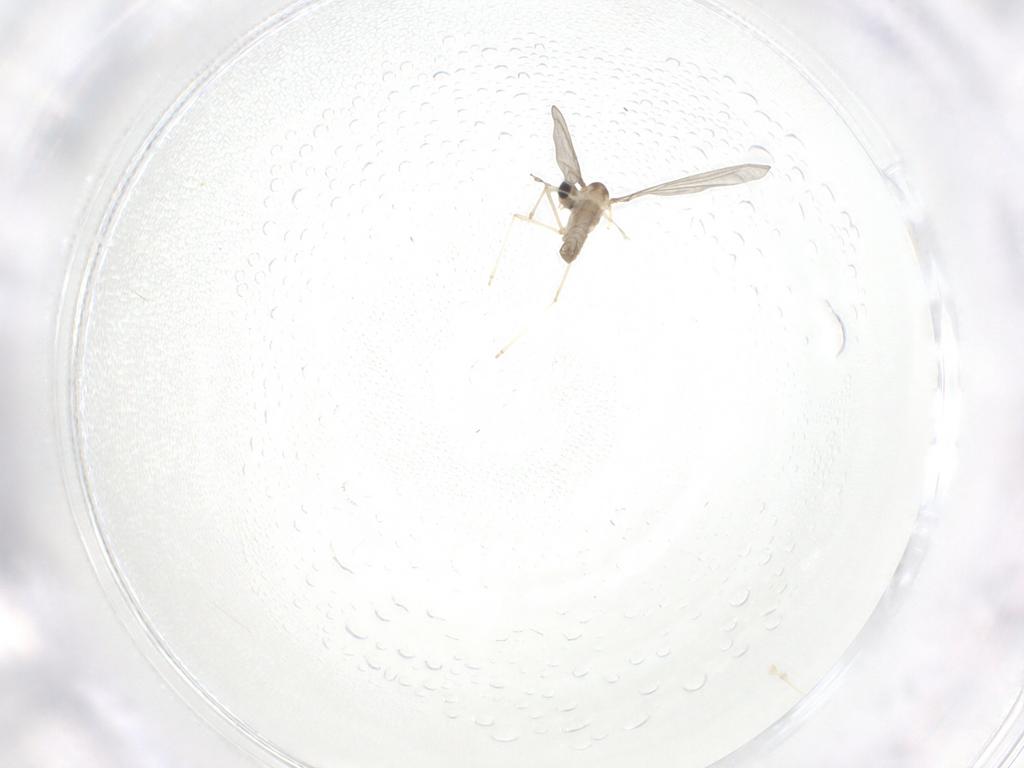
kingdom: Animalia
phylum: Arthropoda
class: Insecta
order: Diptera
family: Cecidomyiidae
